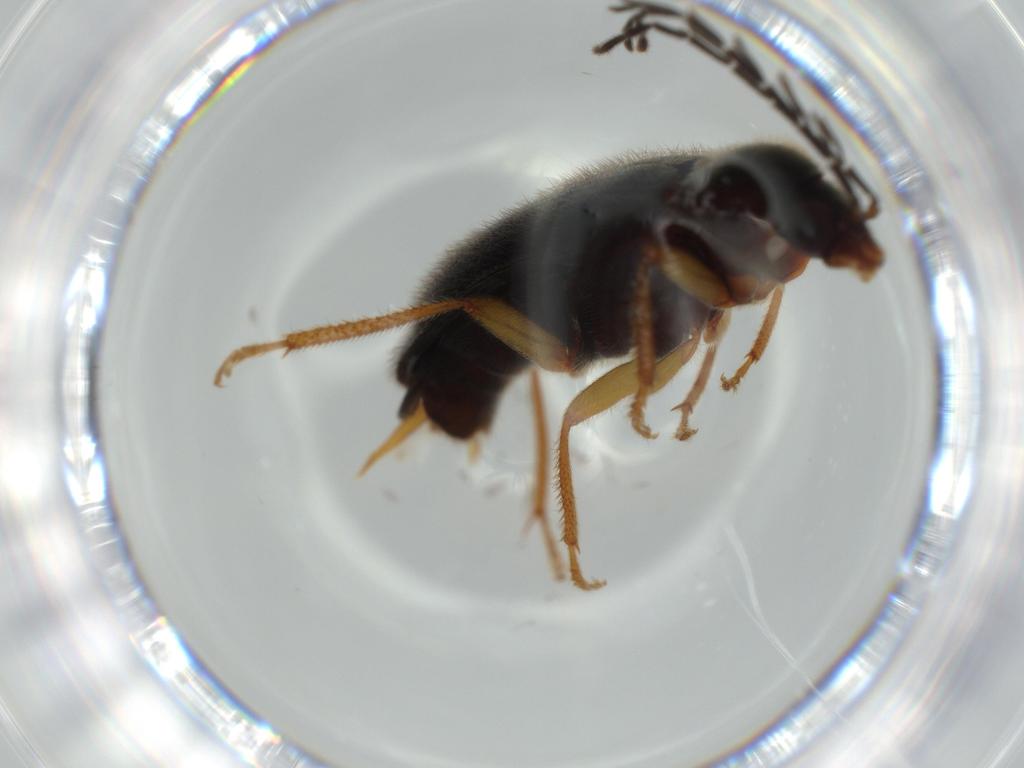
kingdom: Animalia
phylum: Arthropoda
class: Insecta
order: Coleoptera
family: Ptilodactylidae
